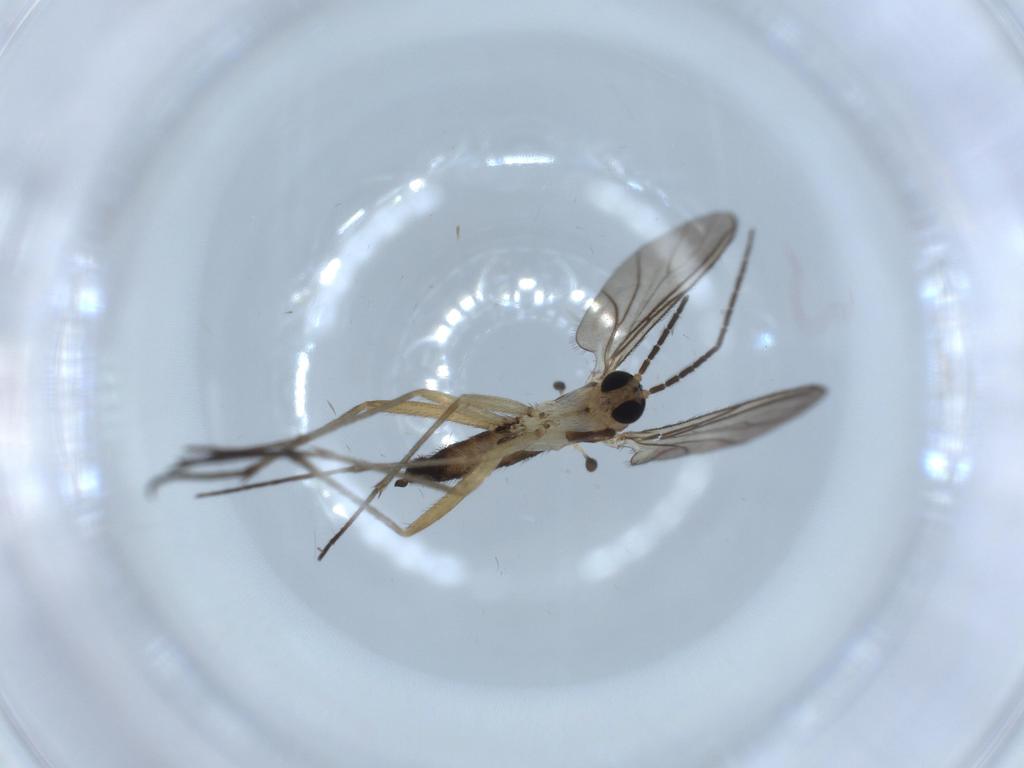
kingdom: Animalia
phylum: Arthropoda
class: Insecta
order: Diptera
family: Sciaridae
